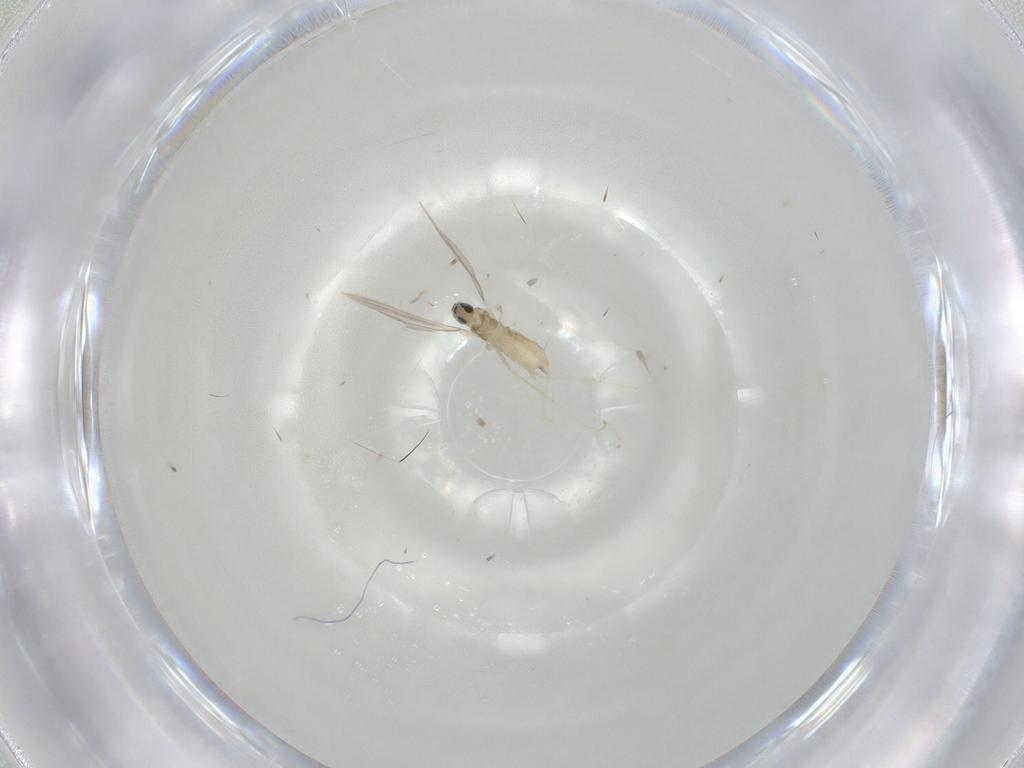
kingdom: Animalia
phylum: Arthropoda
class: Insecta
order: Diptera
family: Cecidomyiidae
